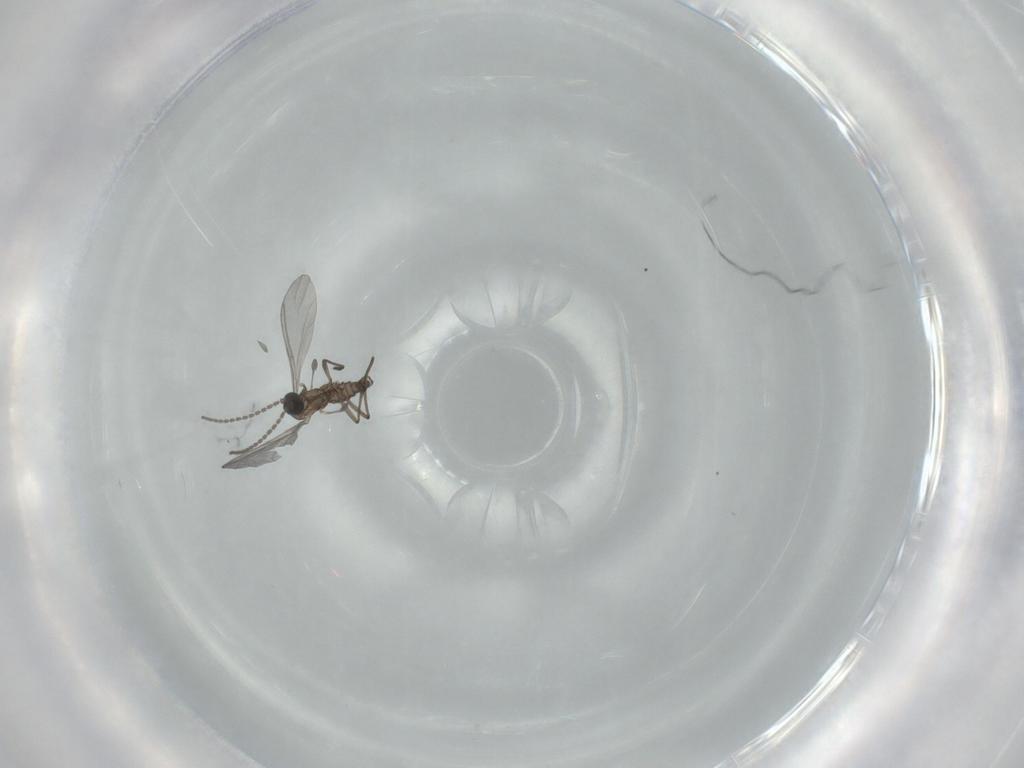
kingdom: Animalia
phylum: Arthropoda
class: Insecta
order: Diptera
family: Sciaridae
